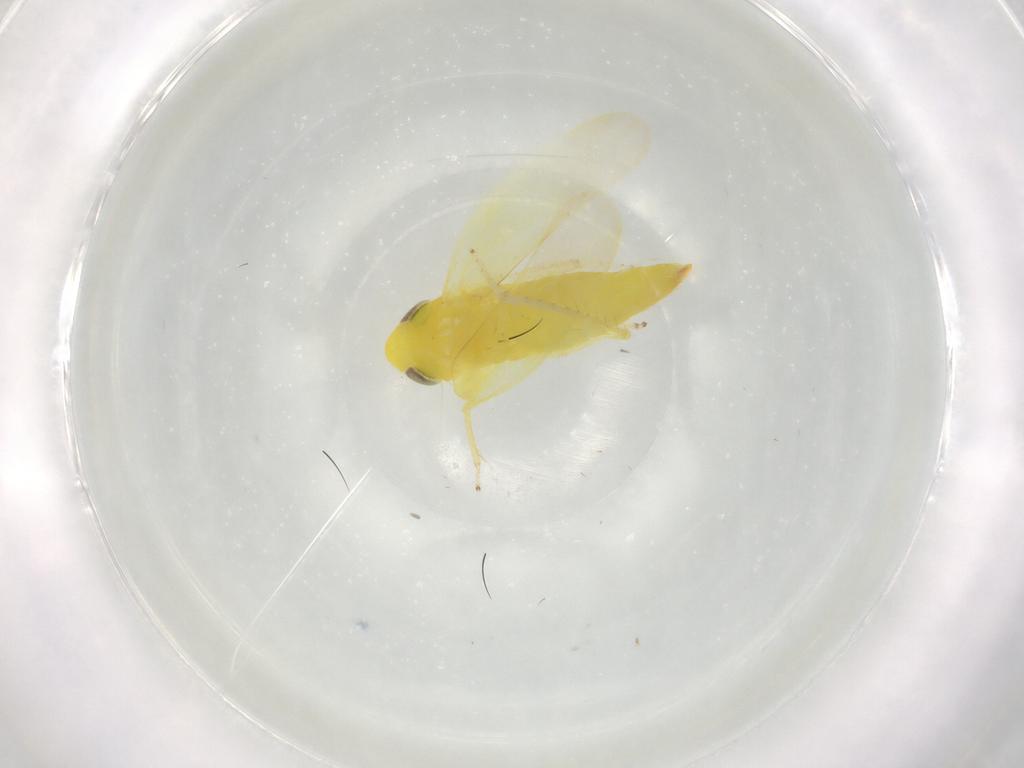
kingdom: Animalia
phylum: Arthropoda
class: Insecta
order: Hemiptera
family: Cicadellidae
